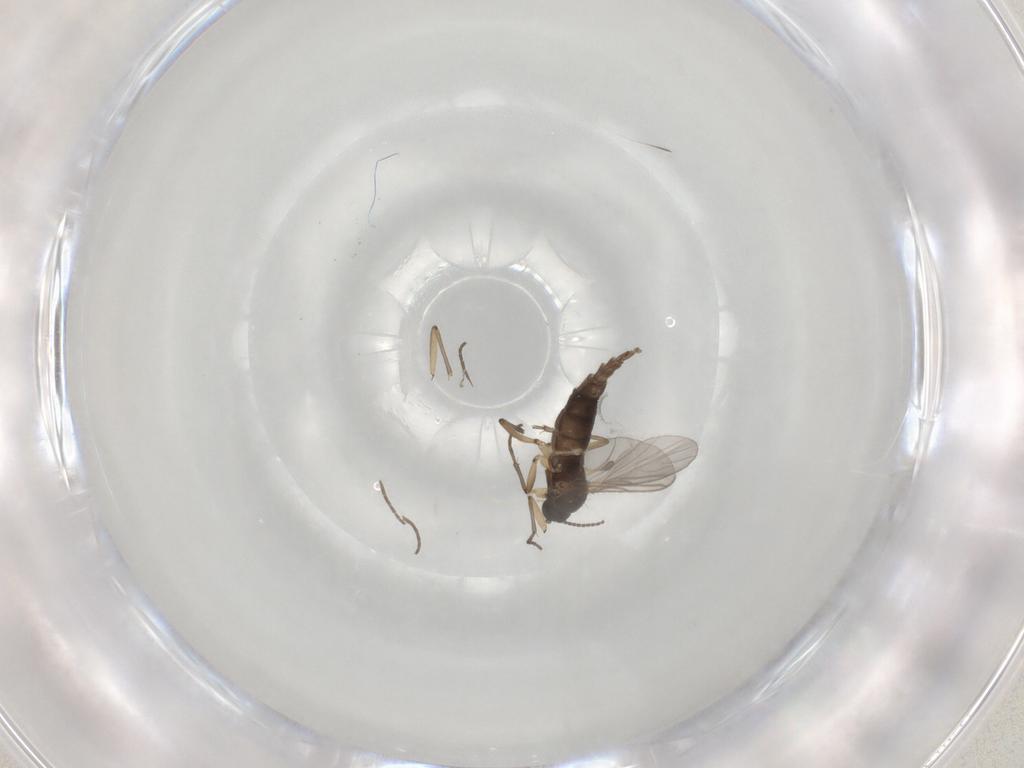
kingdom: Animalia
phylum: Arthropoda
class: Insecta
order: Diptera
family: Sciaridae
